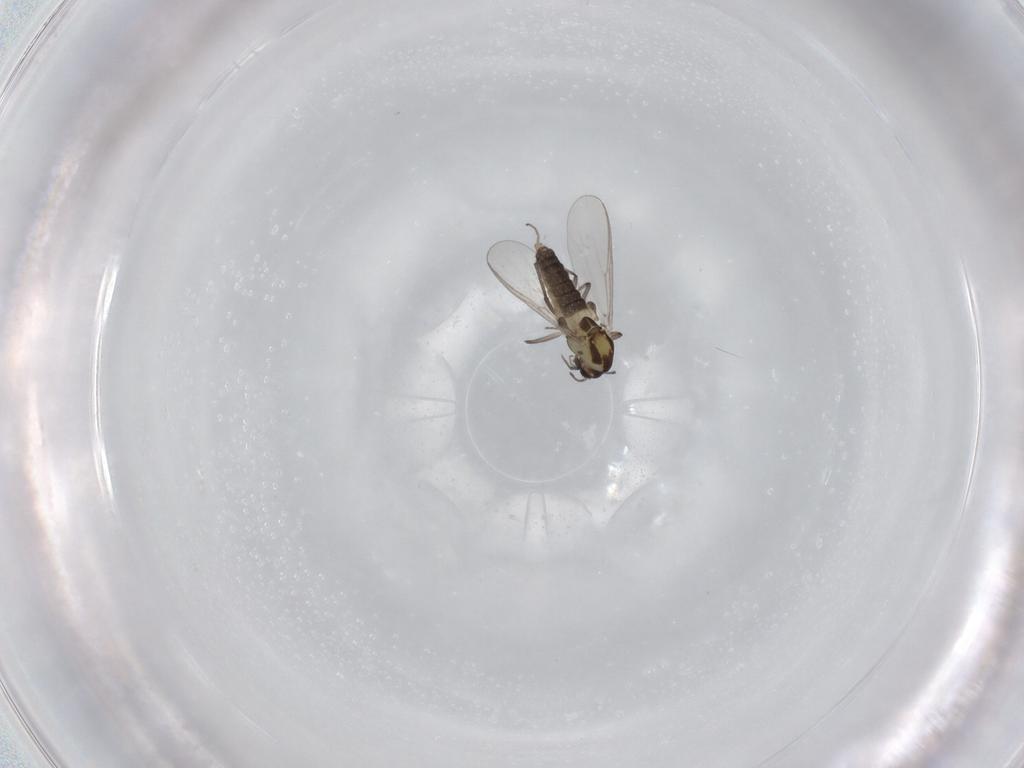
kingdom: Animalia
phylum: Arthropoda
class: Insecta
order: Diptera
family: Chironomidae
